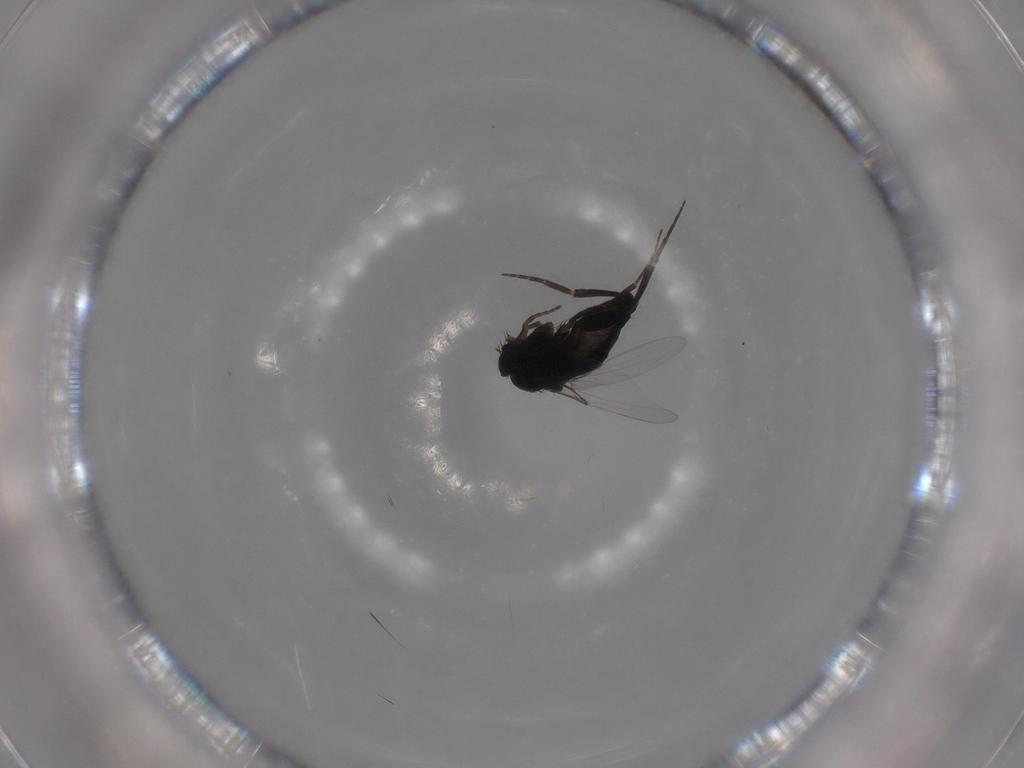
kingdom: Animalia
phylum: Arthropoda
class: Insecta
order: Diptera
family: Phoridae
